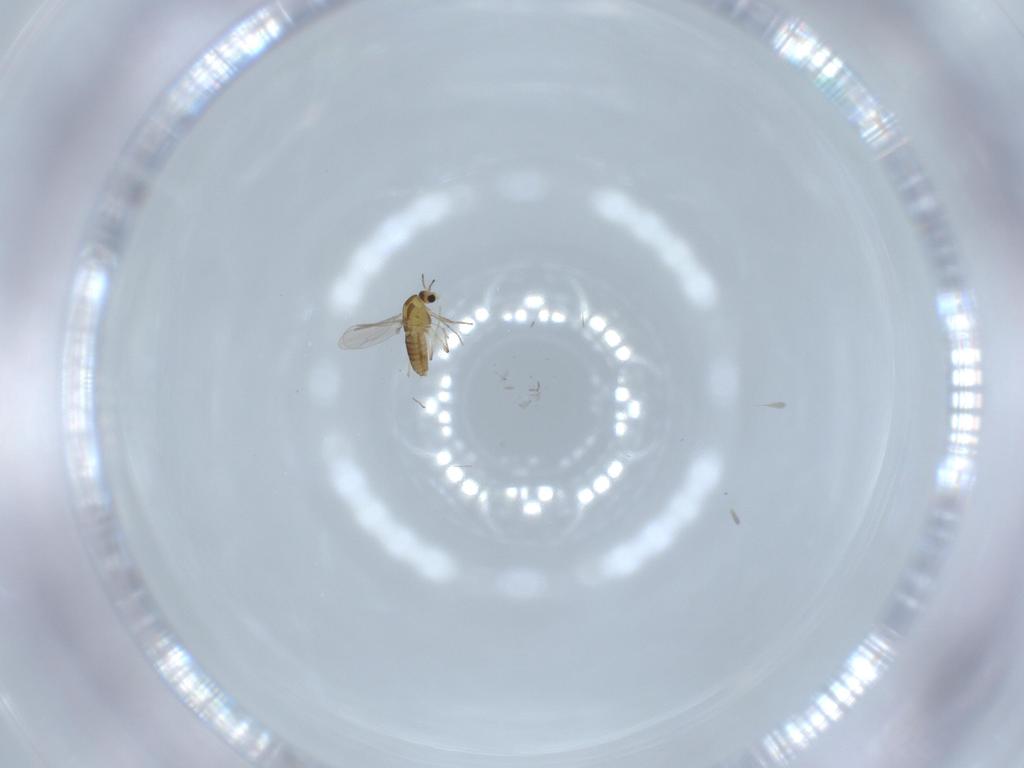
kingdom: Animalia
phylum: Arthropoda
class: Insecta
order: Diptera
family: Chironomidae
